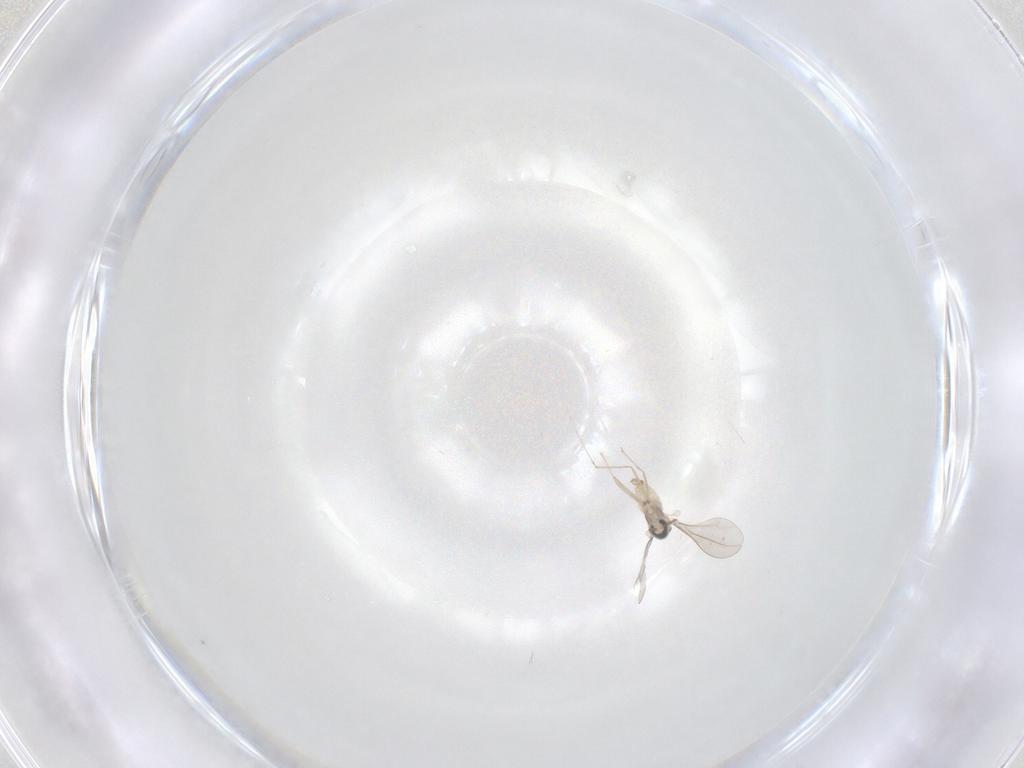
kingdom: Animalia
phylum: Arthropoda
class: Insecta
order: Diptera
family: Cecidomyiidae
